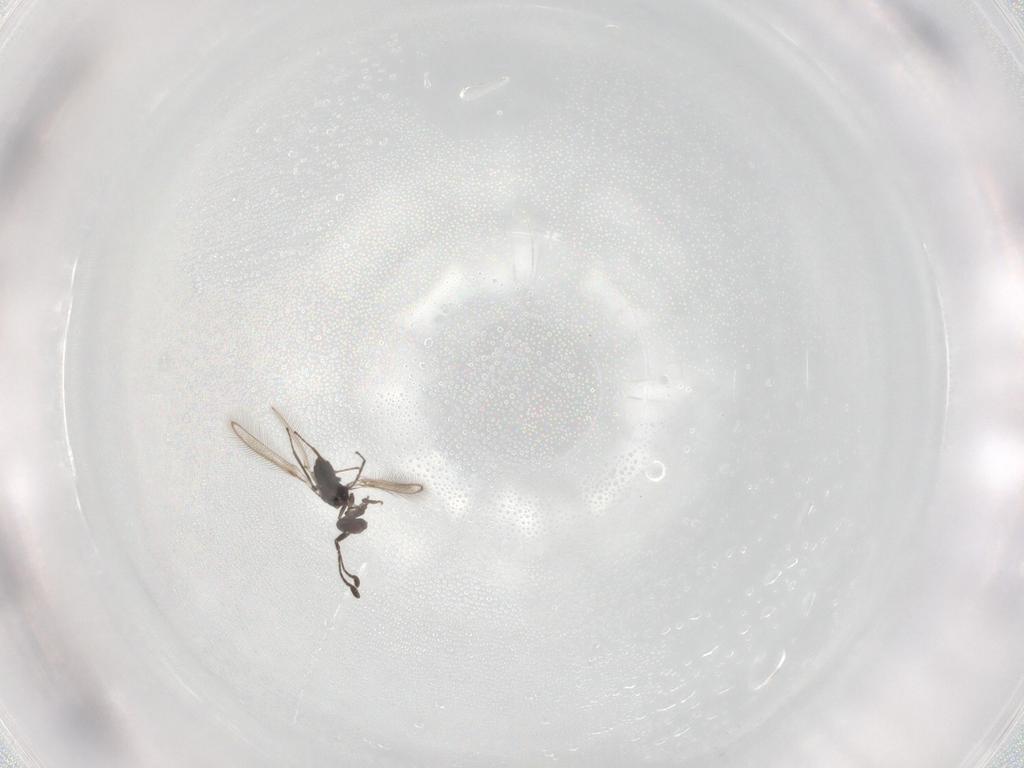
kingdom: Animalia
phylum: Arthropoda
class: Insecta
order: Hymenoptera
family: Mymaridae
